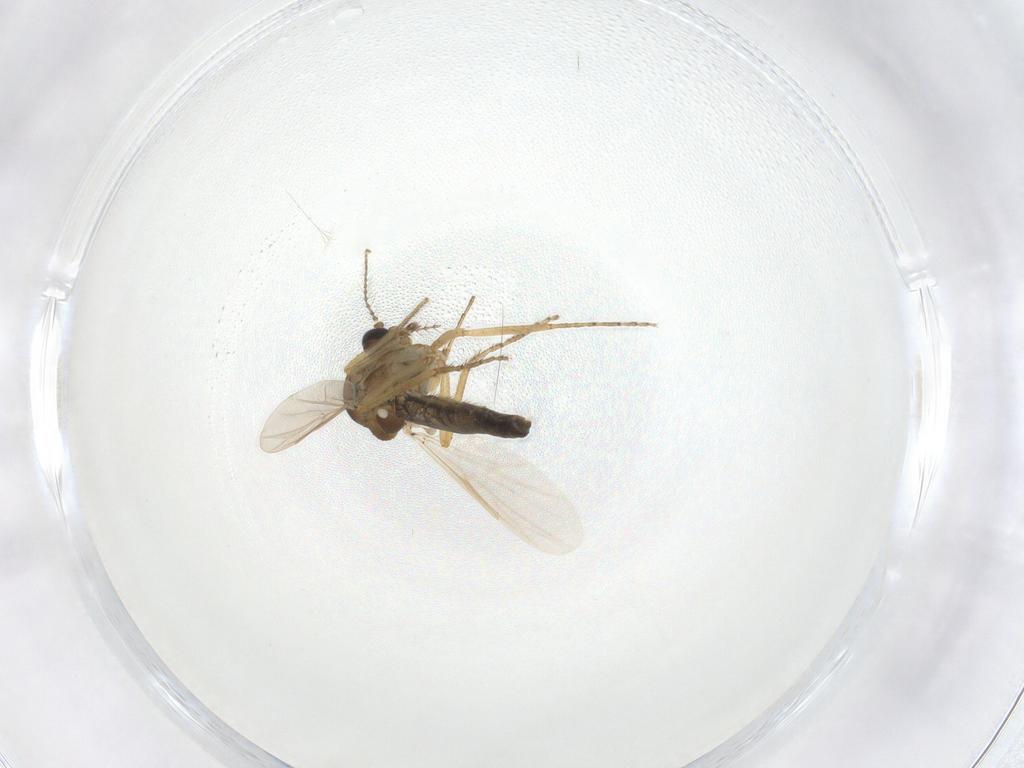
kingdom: Animalia
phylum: Arthropoda
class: Insecta
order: Diptera
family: Ceratopogonidae
